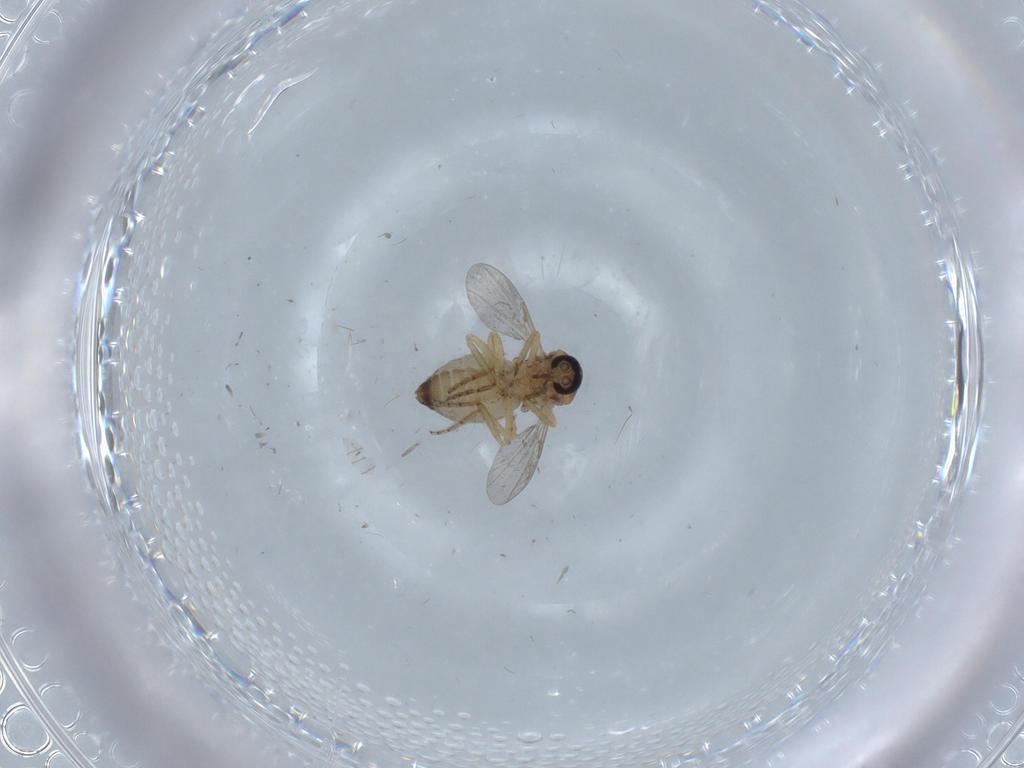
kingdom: Animalia
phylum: Arthropoda
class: Insecta
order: Diptera
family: Ceratopogonidae
